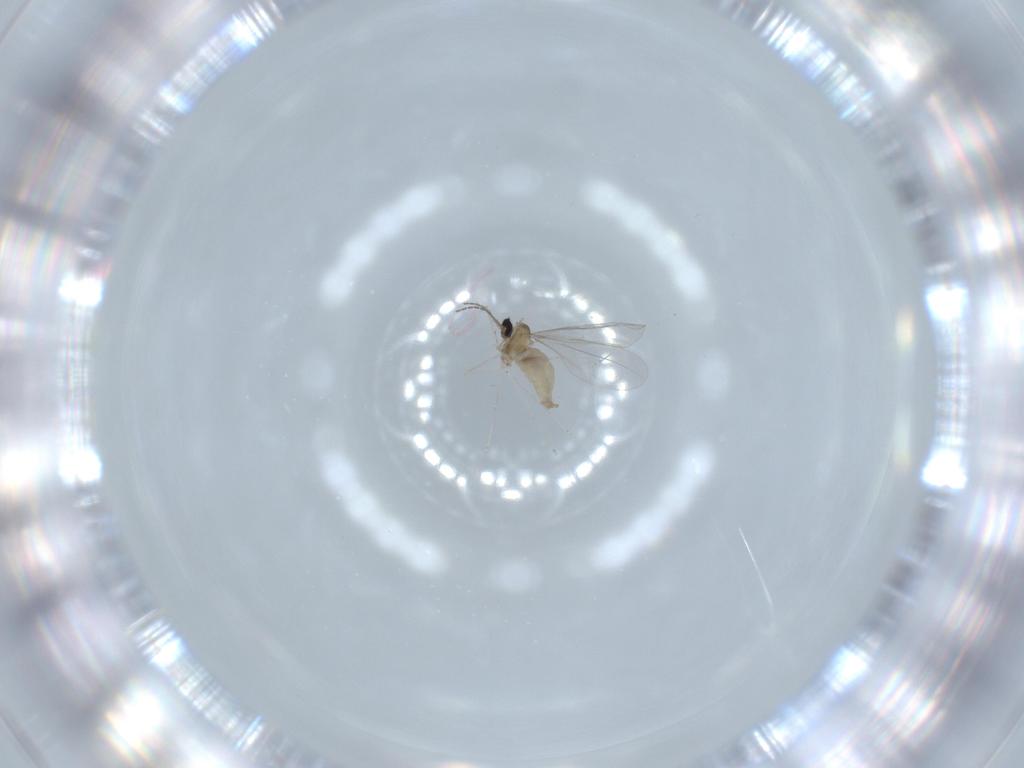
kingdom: Animalia
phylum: Arthropoda
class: Insecta
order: Diptera
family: Cecidomyiidae
